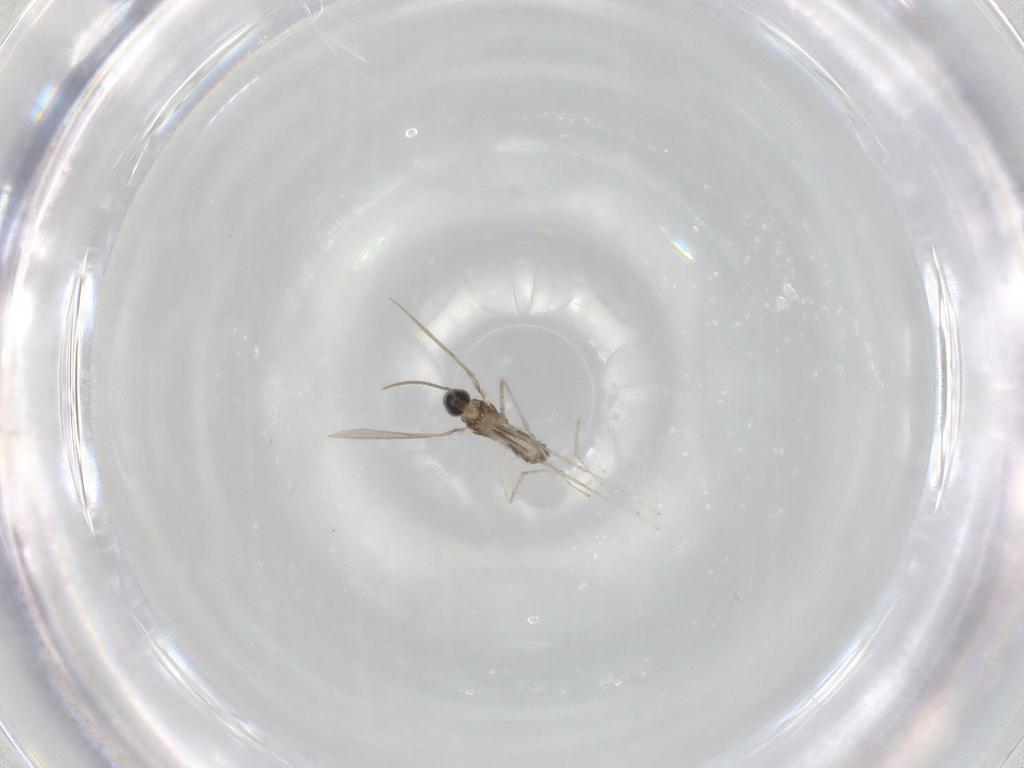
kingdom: Animalia
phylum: Arthropoda
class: Insecta
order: Diptera
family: Cecidomyiidae
